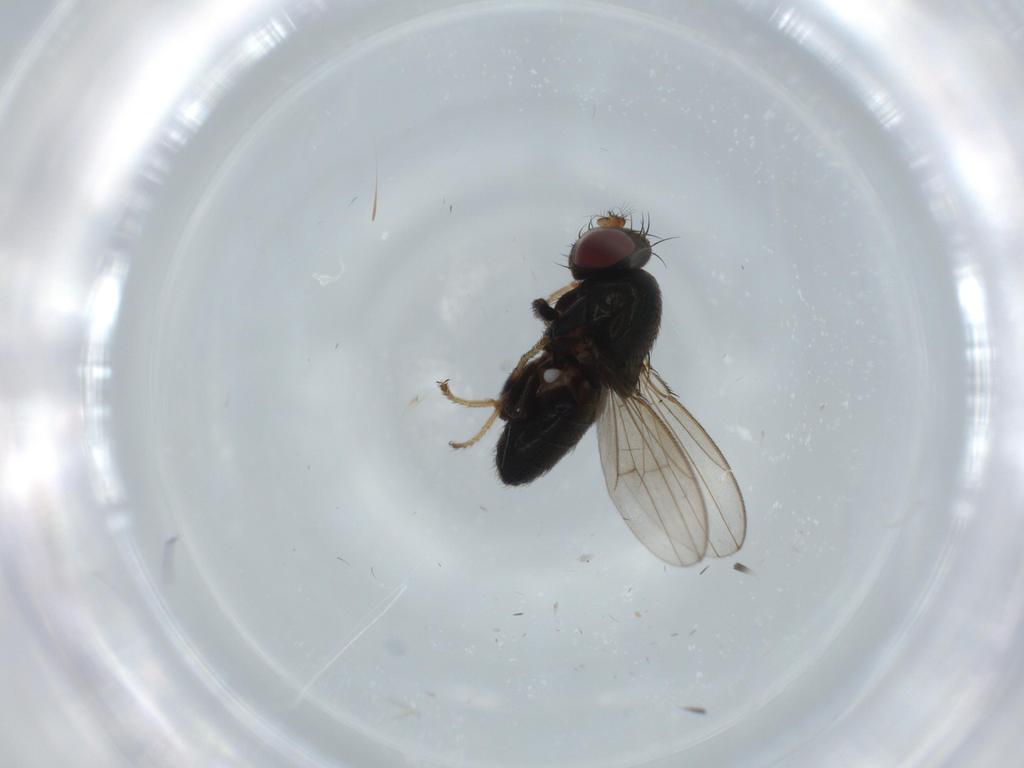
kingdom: Animalia
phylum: Arthropoda
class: Insecta
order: Diptera
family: Ephydridae
